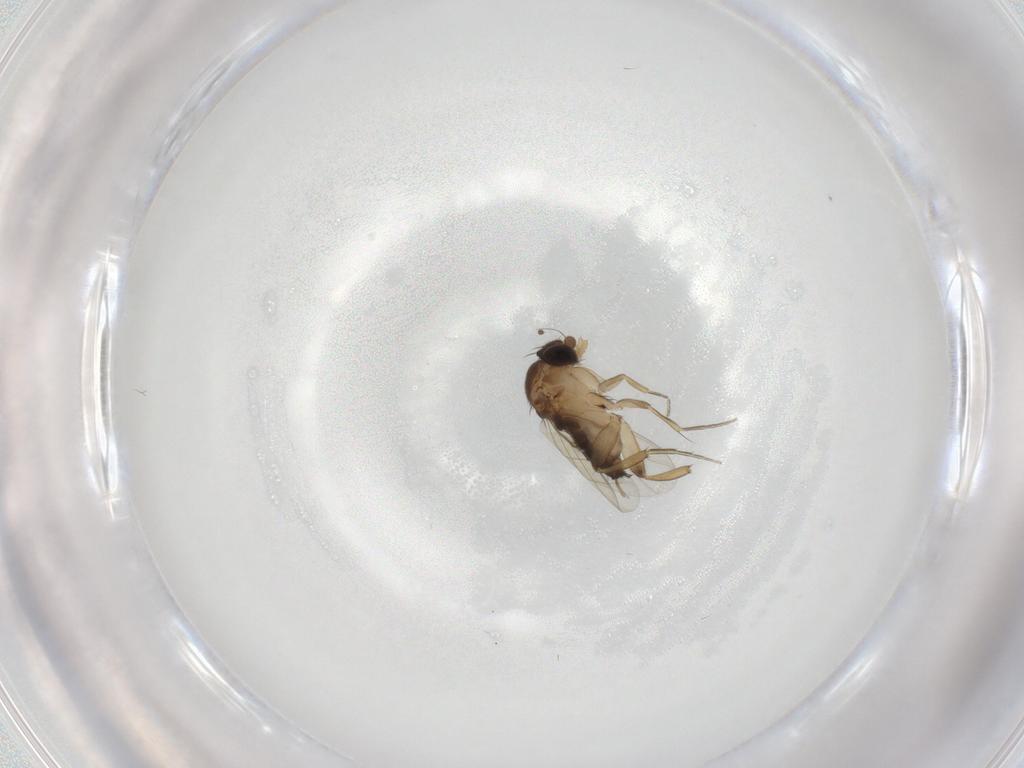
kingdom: Animalia
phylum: Arthropoda
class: Insecta
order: Diptera
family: Phoridae
